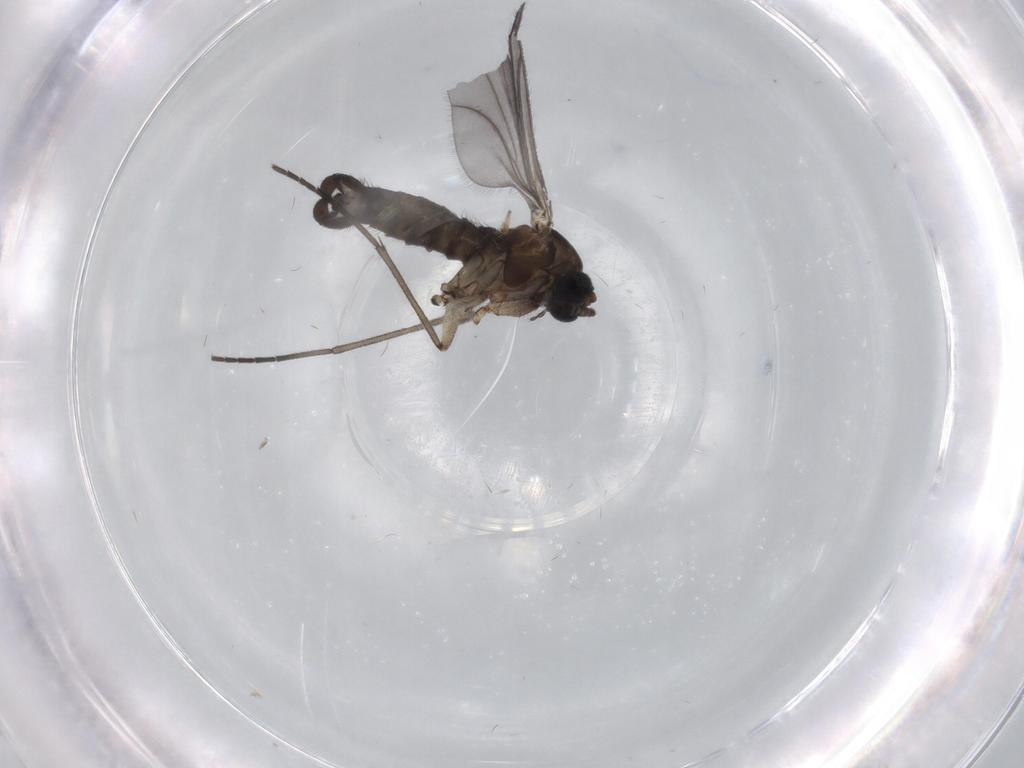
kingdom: Animalia
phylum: Arthropoda
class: Insecta
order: Diptera
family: Sciaridae
